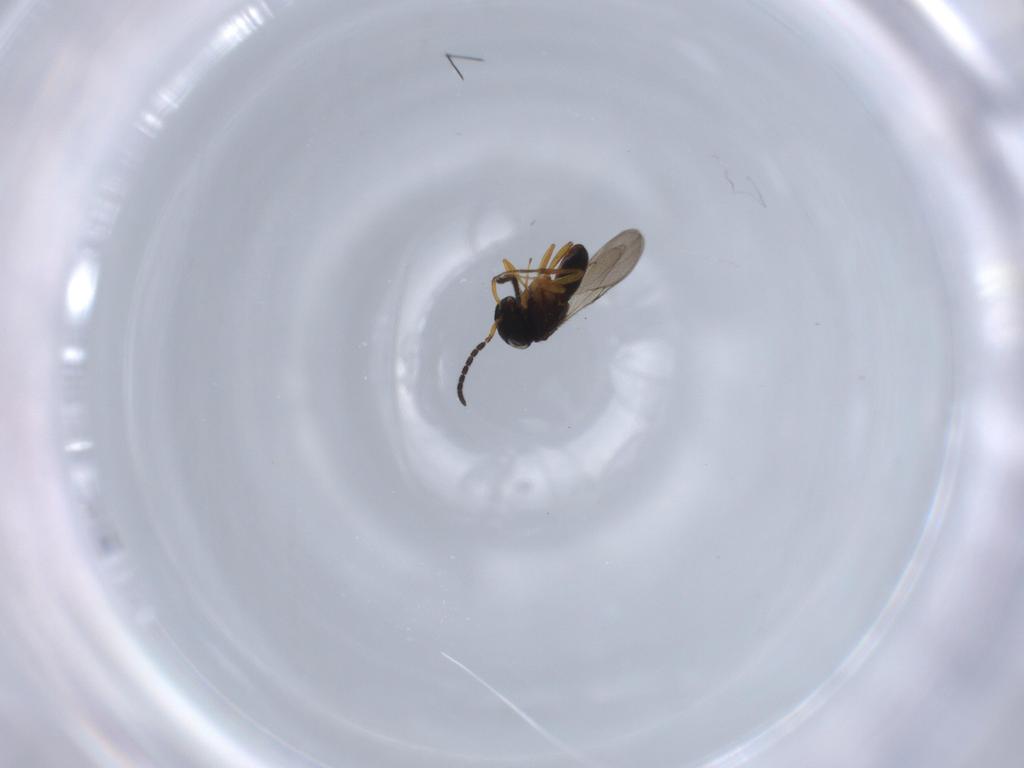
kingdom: Animalia
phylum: Arthropoda
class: Insecta
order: Hymenoptera
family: Scelionidae
